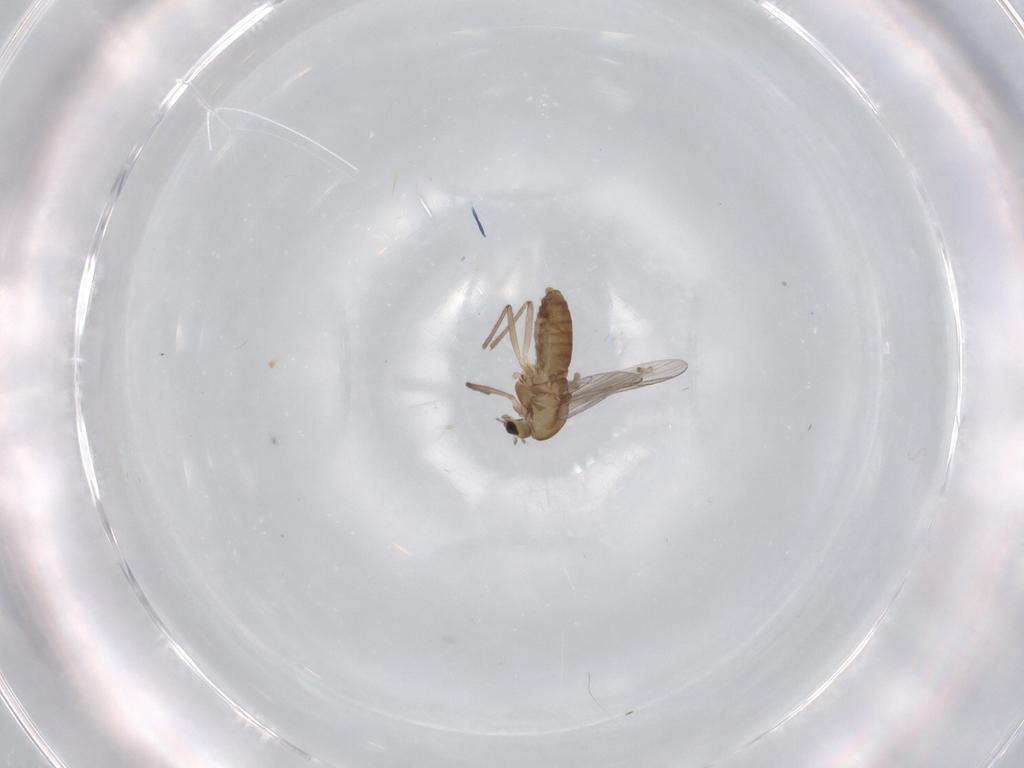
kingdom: Animalia
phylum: Arthropoda
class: Insecta
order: Diptera
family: Chironomidae
